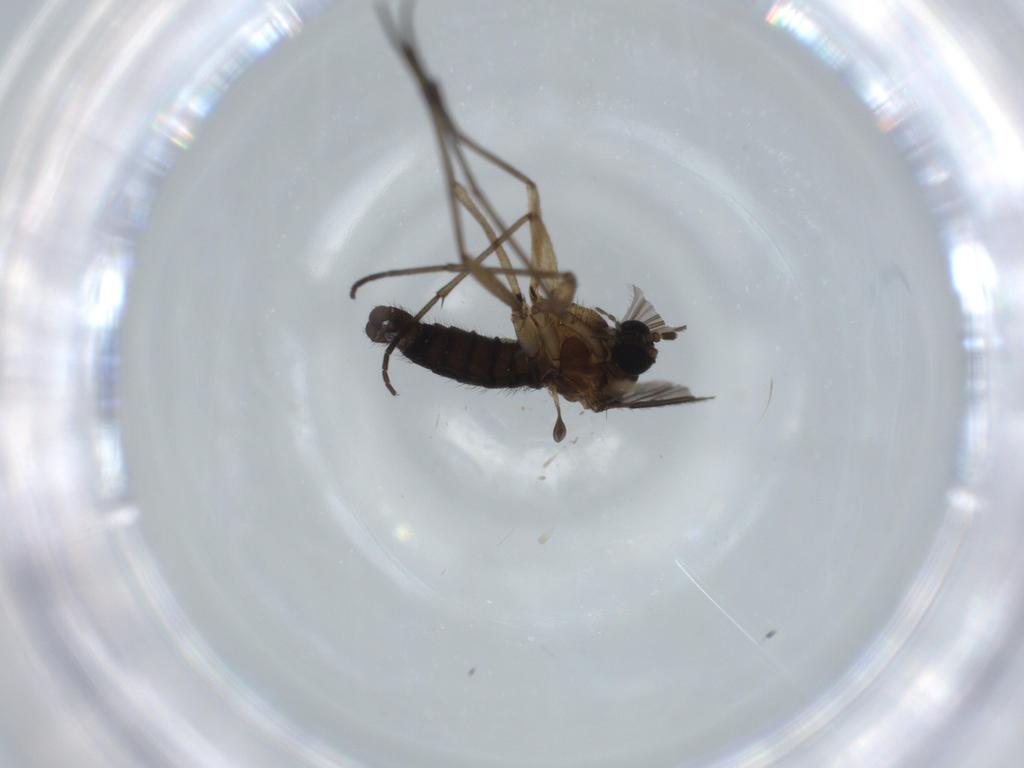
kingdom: Animalia
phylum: Arthropoda
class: Insecta
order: Diptera
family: Sciaridae
